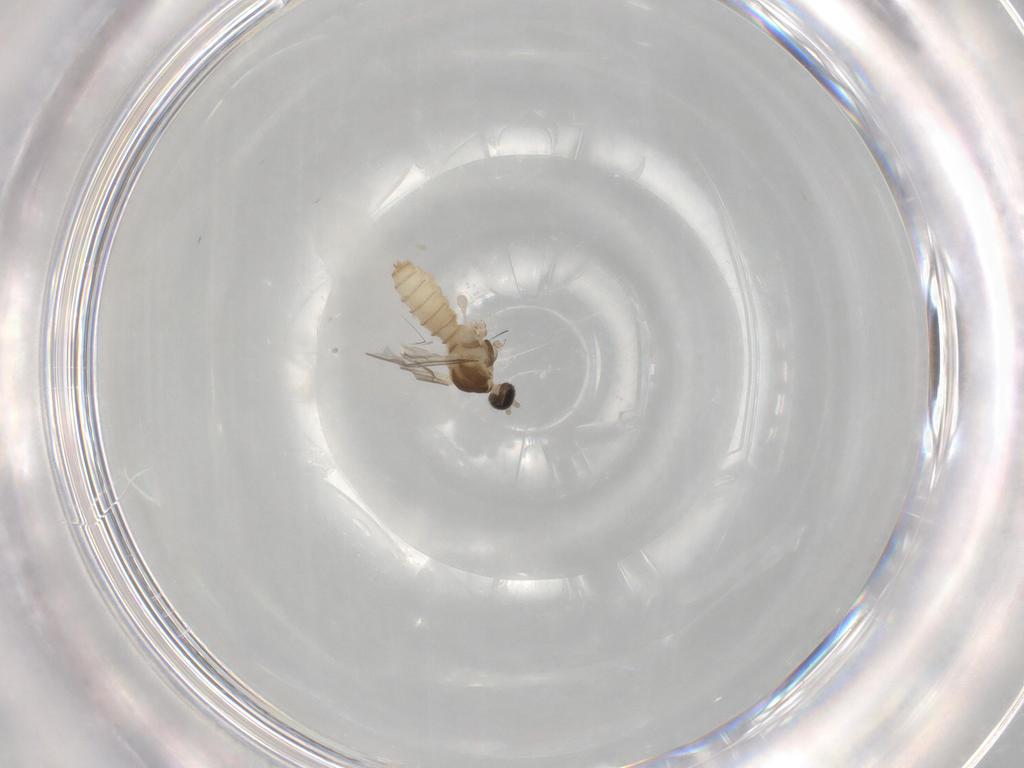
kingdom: Animalia
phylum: Arthropoda
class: Insecta
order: Diptera
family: Cecidomyiidae
